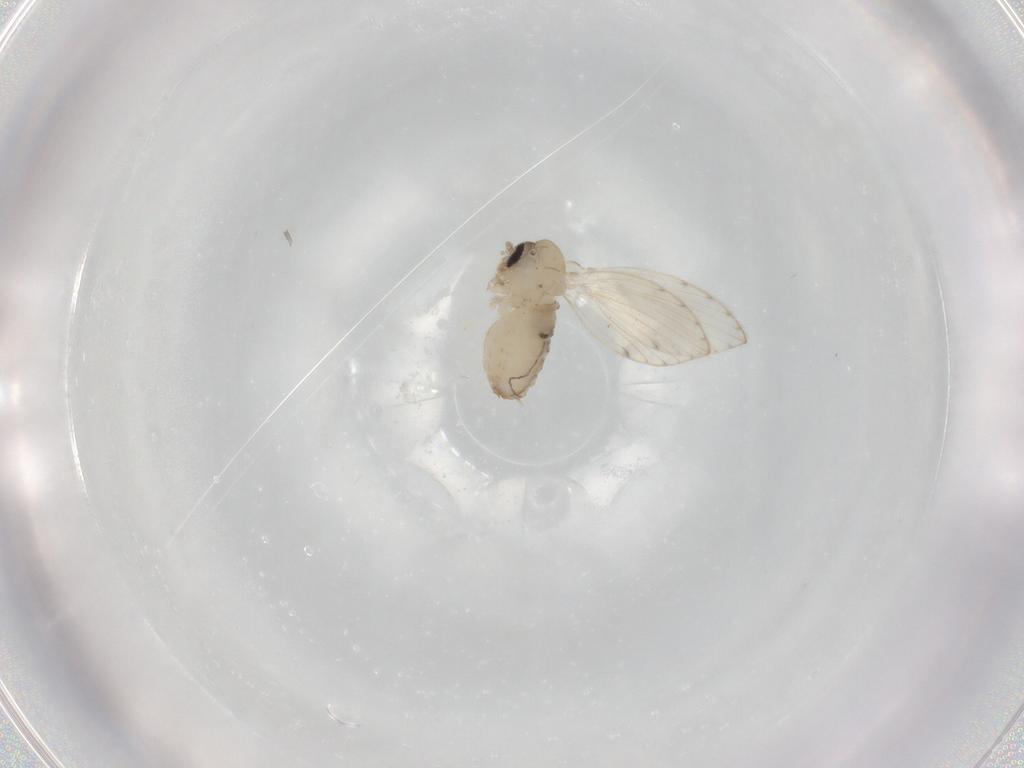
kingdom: Animalia
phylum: Arthropoda
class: Insecta
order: Diptera
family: Chironomidae
